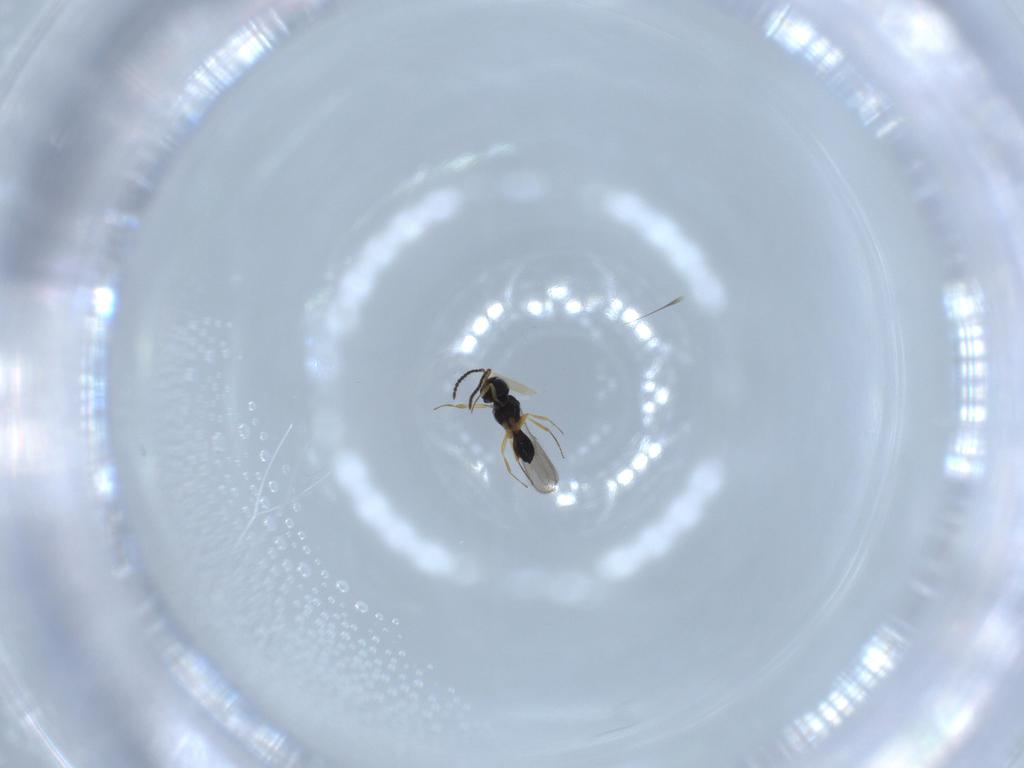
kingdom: Animalia
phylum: Arthropoda
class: Insecta
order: Hymenoptera
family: Scelionidae
